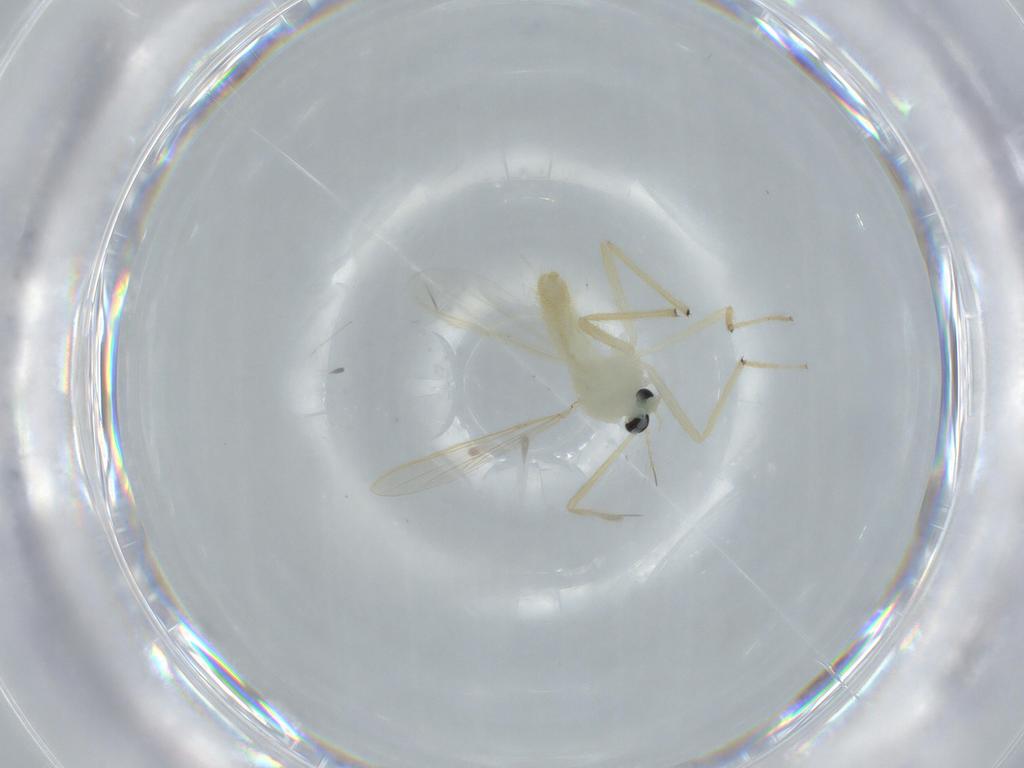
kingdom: Animalia
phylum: Arthropoda
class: Insecta
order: Diptera
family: Chironomidae
